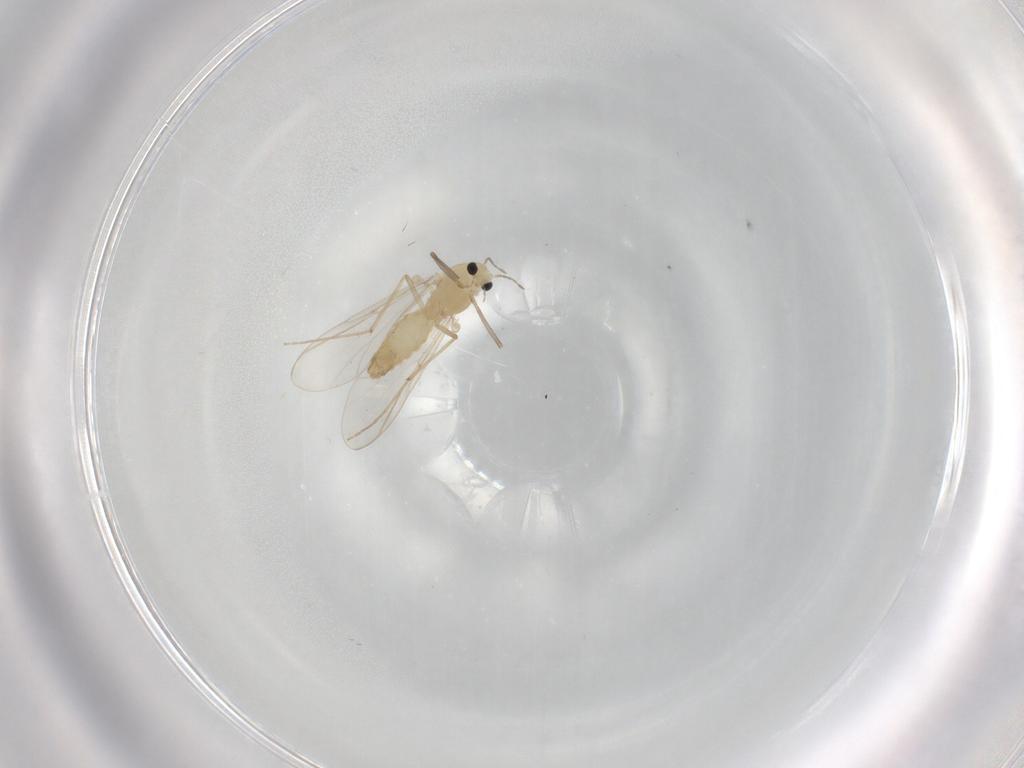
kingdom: Animalia
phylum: Arthropoda
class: Insecta
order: Diptera
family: Chironomidae
